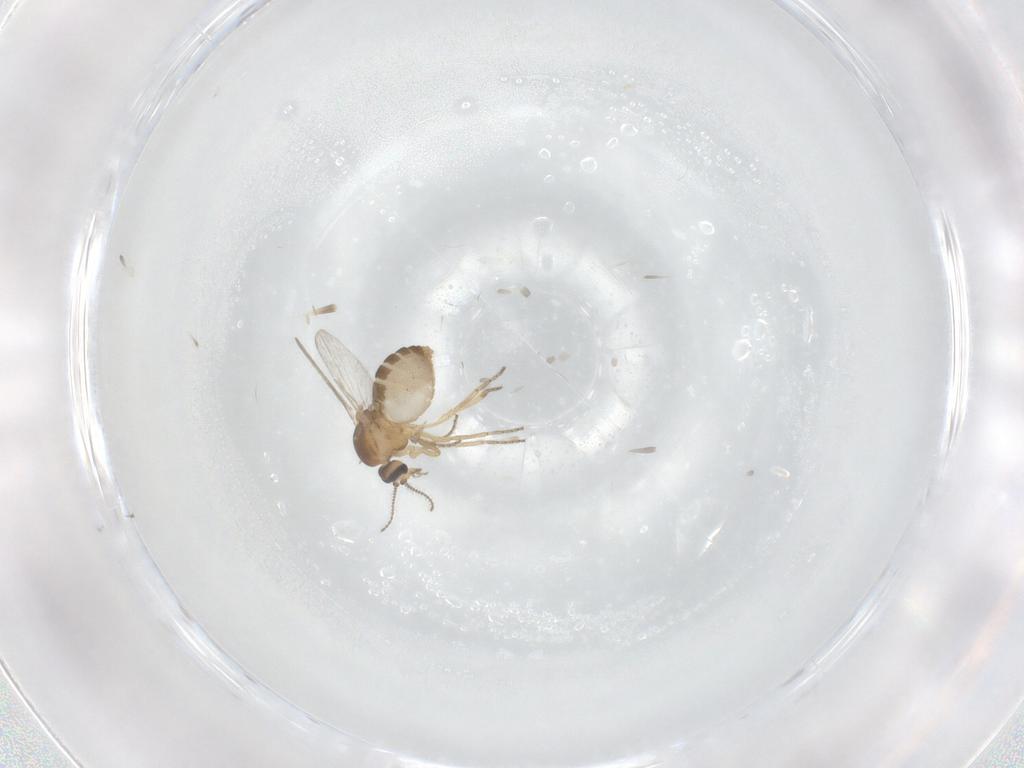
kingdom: Animalia
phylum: Arthropoda
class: Insecta
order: Diptera
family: Ceratopogonidae
